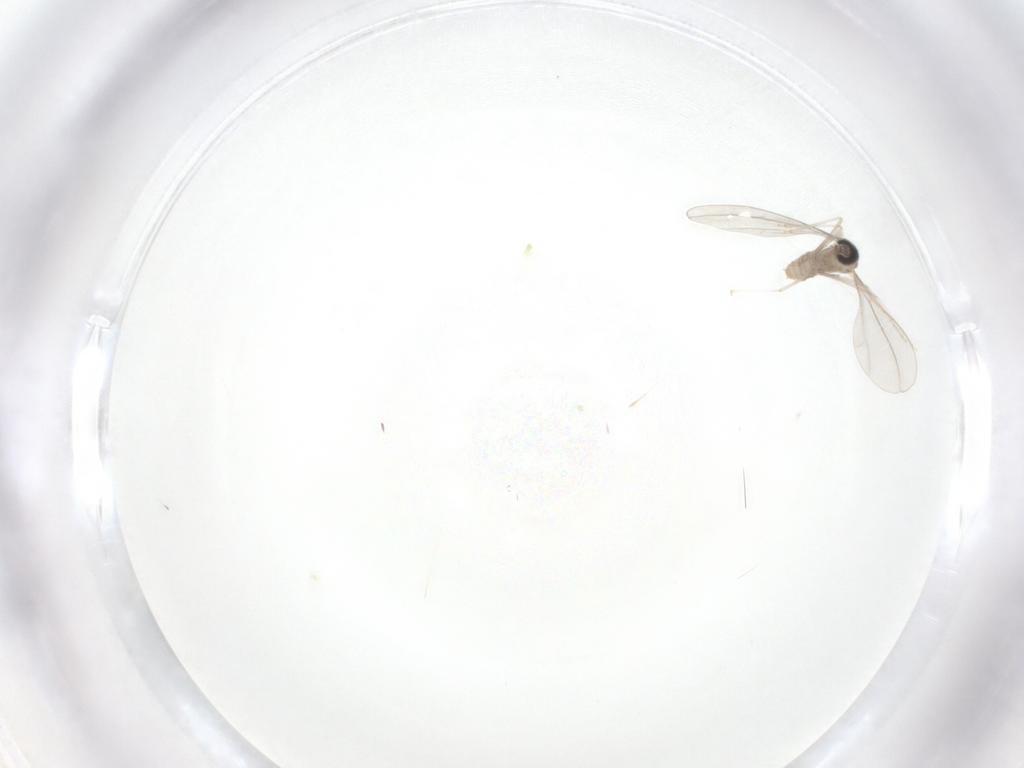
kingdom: Animalia
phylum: Arthropoda
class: Insecta
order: Diptera
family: Cecidomyiidae
